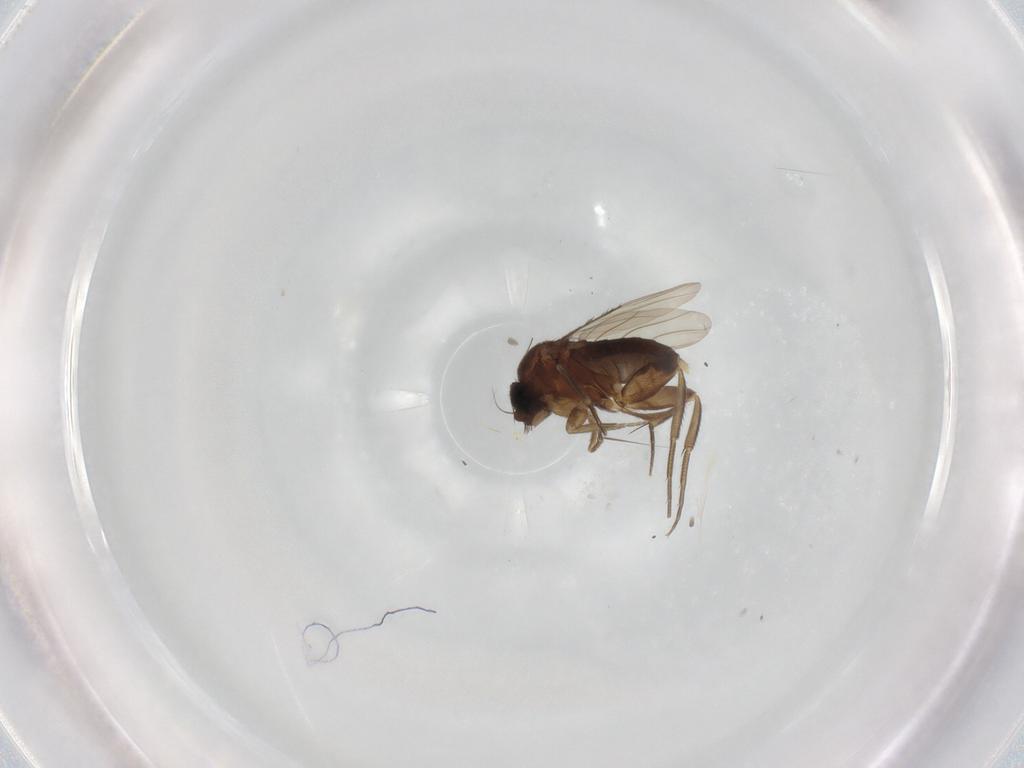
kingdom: Animalia
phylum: Arthropoda
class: Insecta
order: Diptera
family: Phoridae
